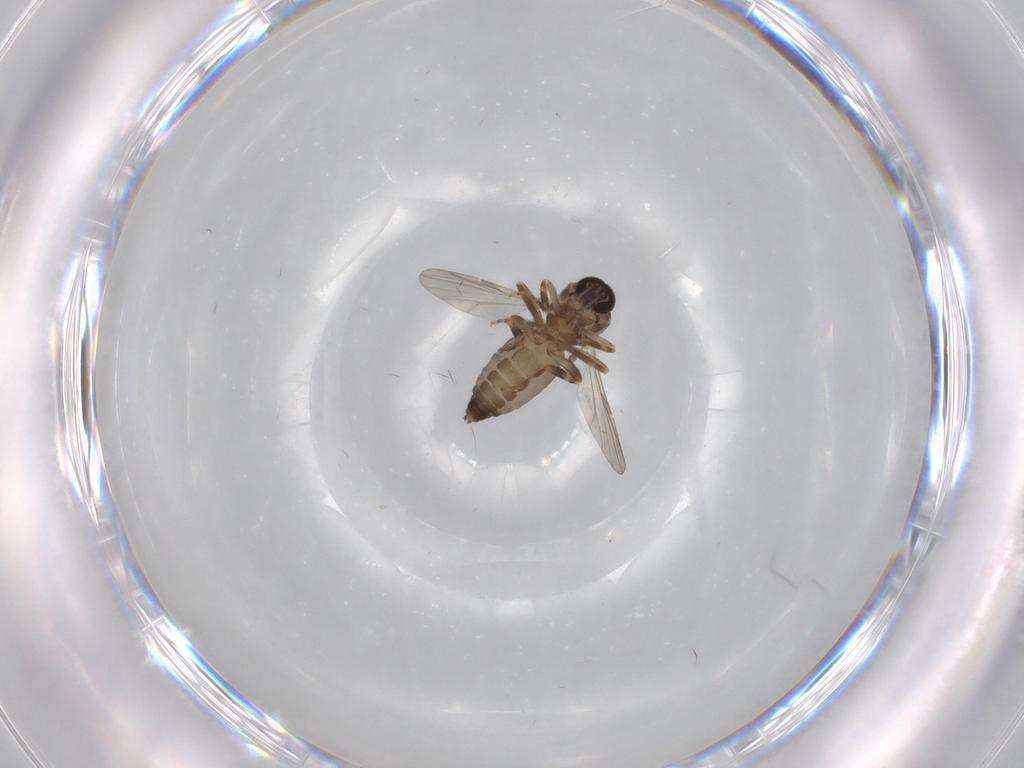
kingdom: Animalia
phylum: Arthropoda
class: Insecta
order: Diptera
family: Ceratopogonidae
